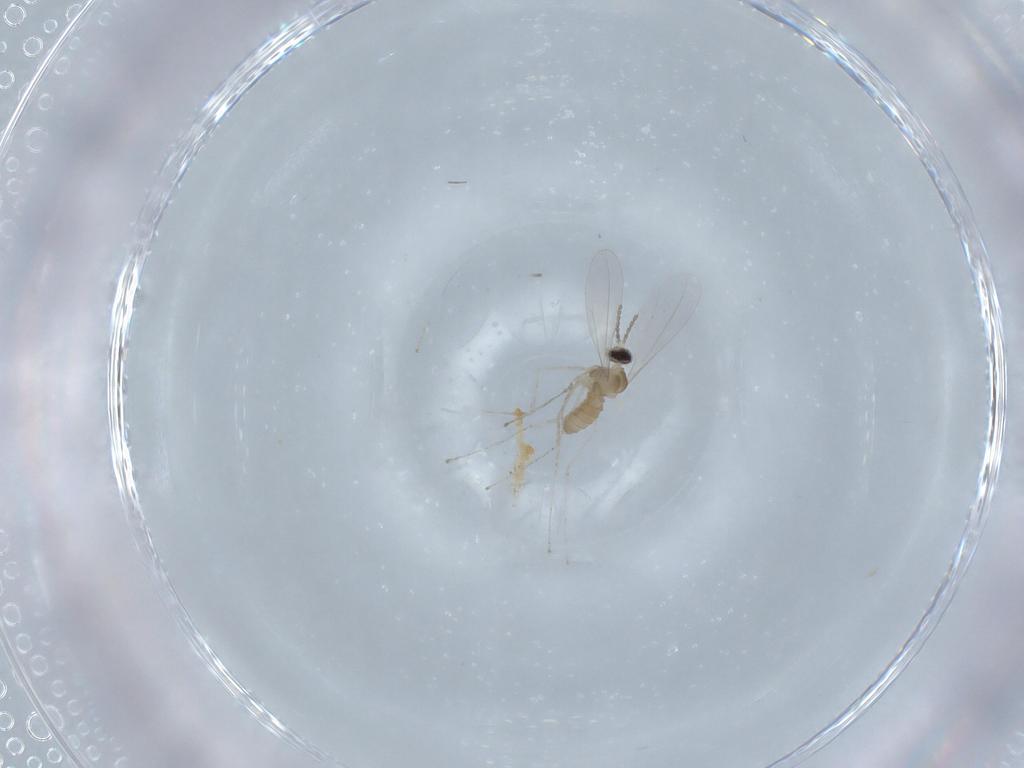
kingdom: Animalia
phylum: Arthropoda
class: Insecta
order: Diptera
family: Cecidomyiidae
